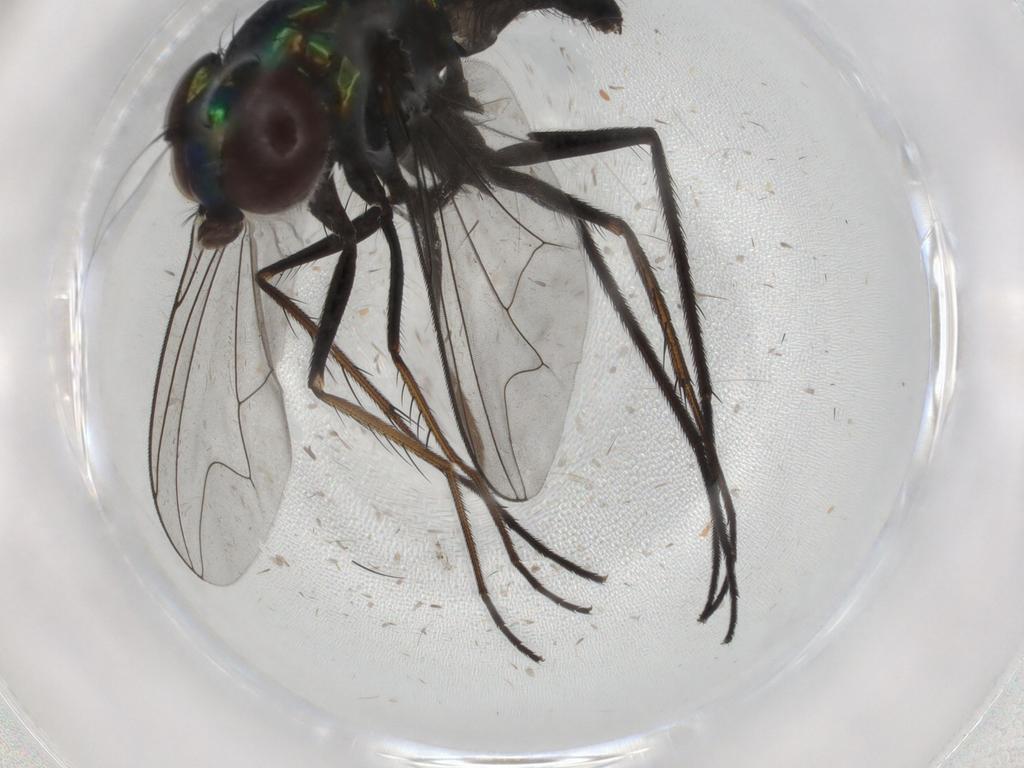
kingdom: Animalia
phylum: Arthropoda
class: Insecta
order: Diptera
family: Dolichopodidae
